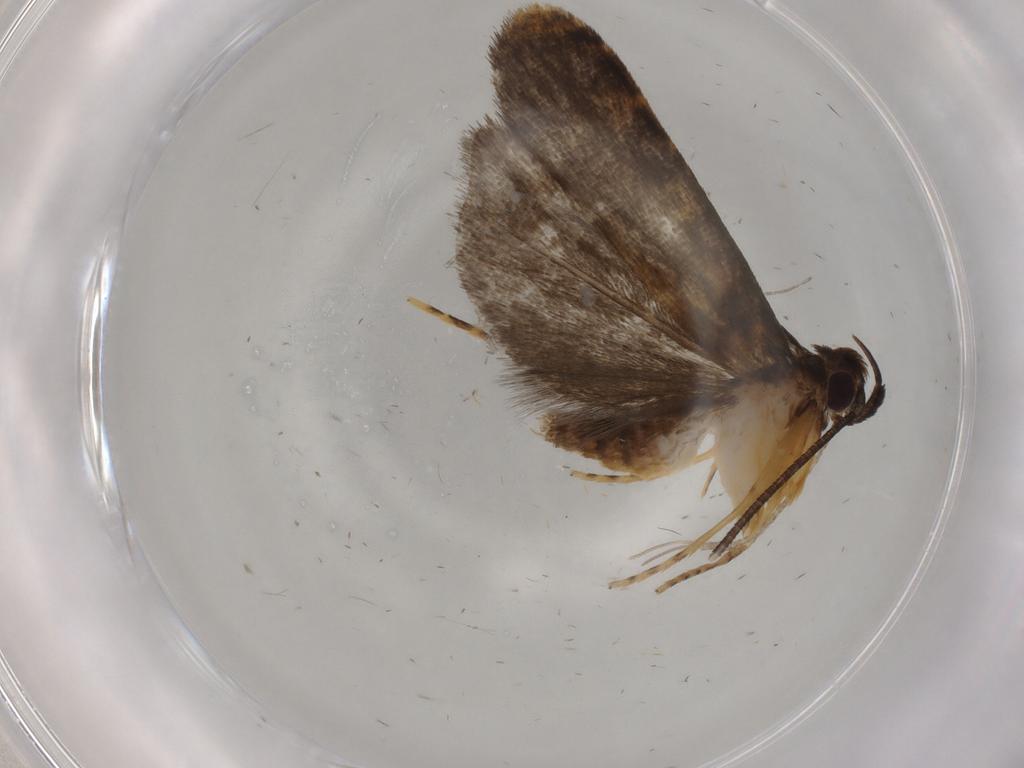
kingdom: Animalia
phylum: Arthropoda
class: Insecta
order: Lepidoptera
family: Cosmopterigidae
